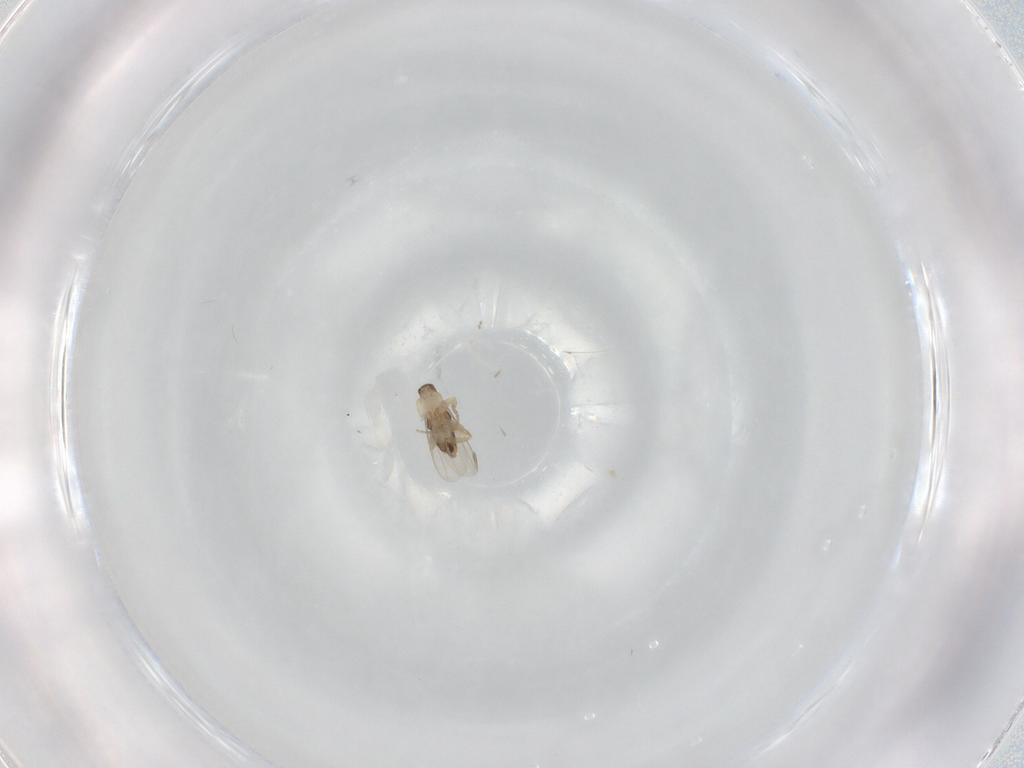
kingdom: Animalia
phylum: Arthropoda
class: Insecta
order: Diptera
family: Phoridae
